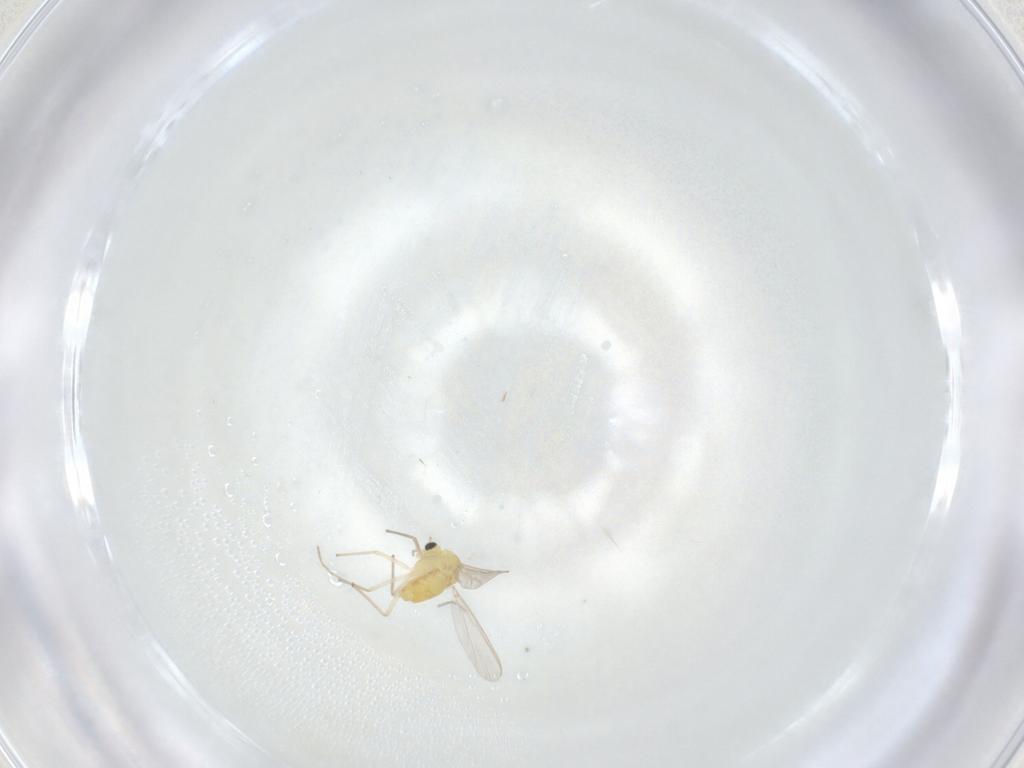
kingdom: Animalia
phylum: Arthropoda
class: Insecta
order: Diptera
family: Chironomidae
